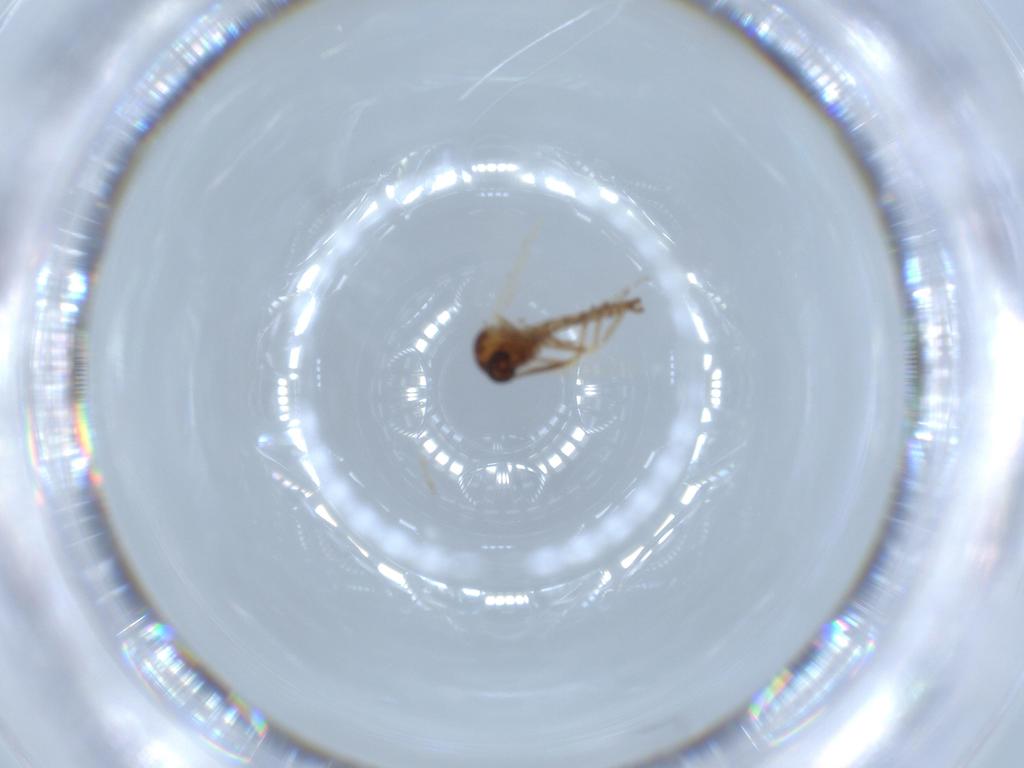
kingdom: Animalia
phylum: Arthropoda
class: Insecta
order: Diptera
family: Ceratopogonidae
